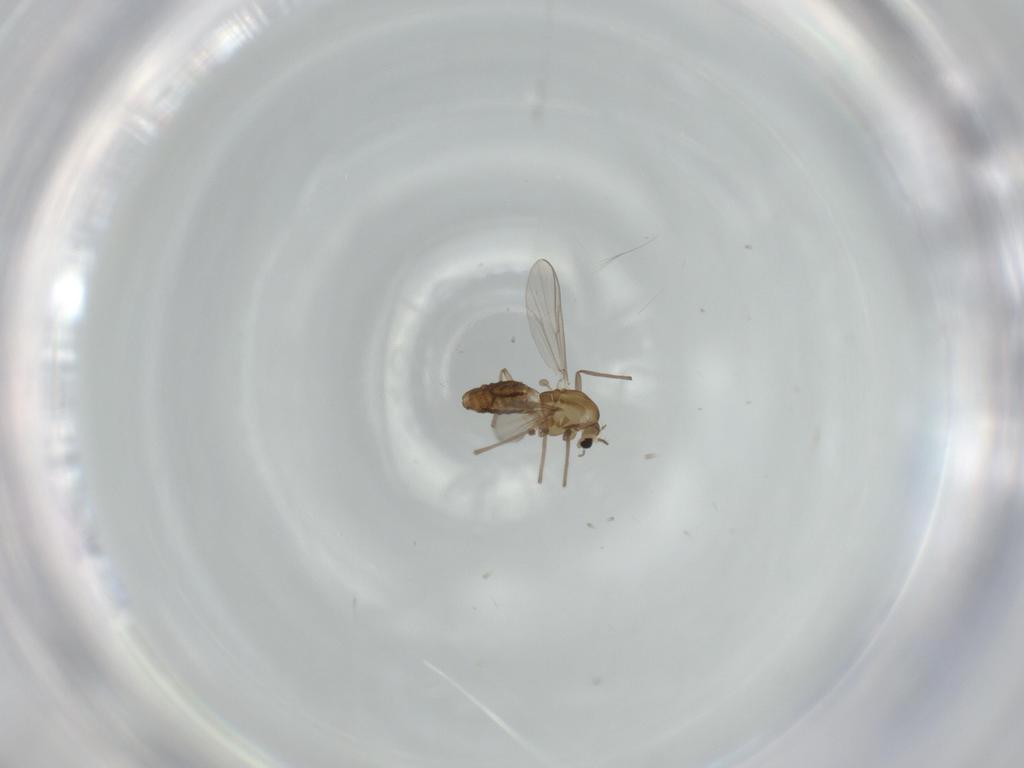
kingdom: Animalia
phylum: Arthropoda
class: Insecta
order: Diptera
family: Chironomidae
